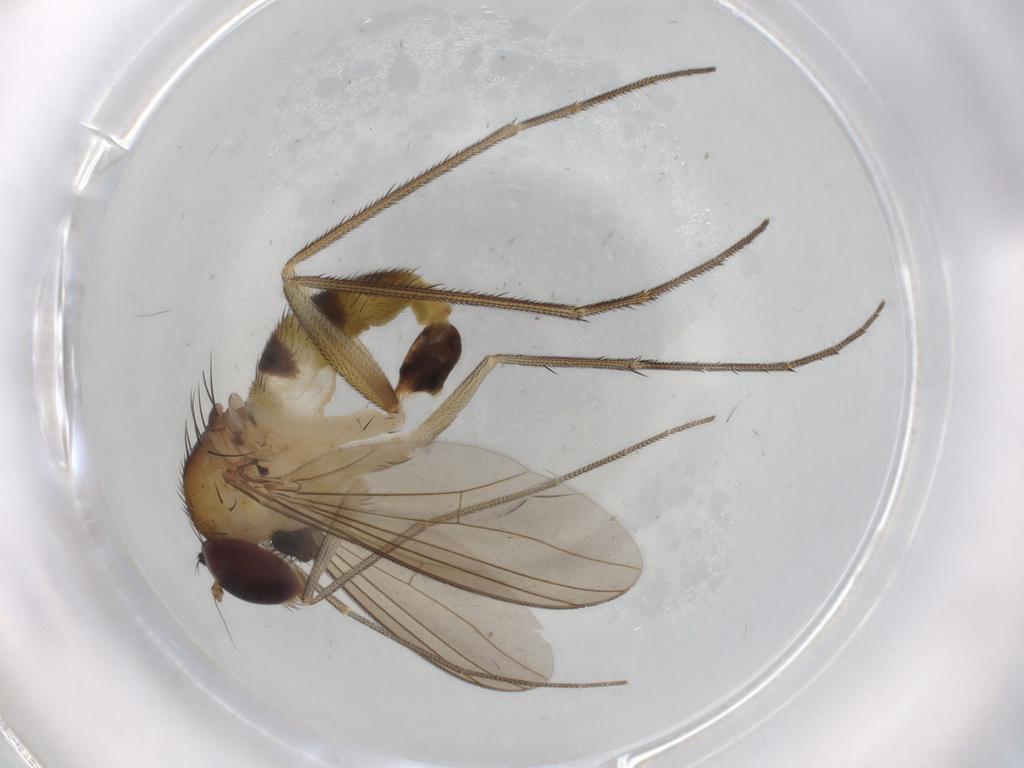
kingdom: Animalia
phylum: Arthropoda
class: Insecta
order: Diptera
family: Dolichopodidae
